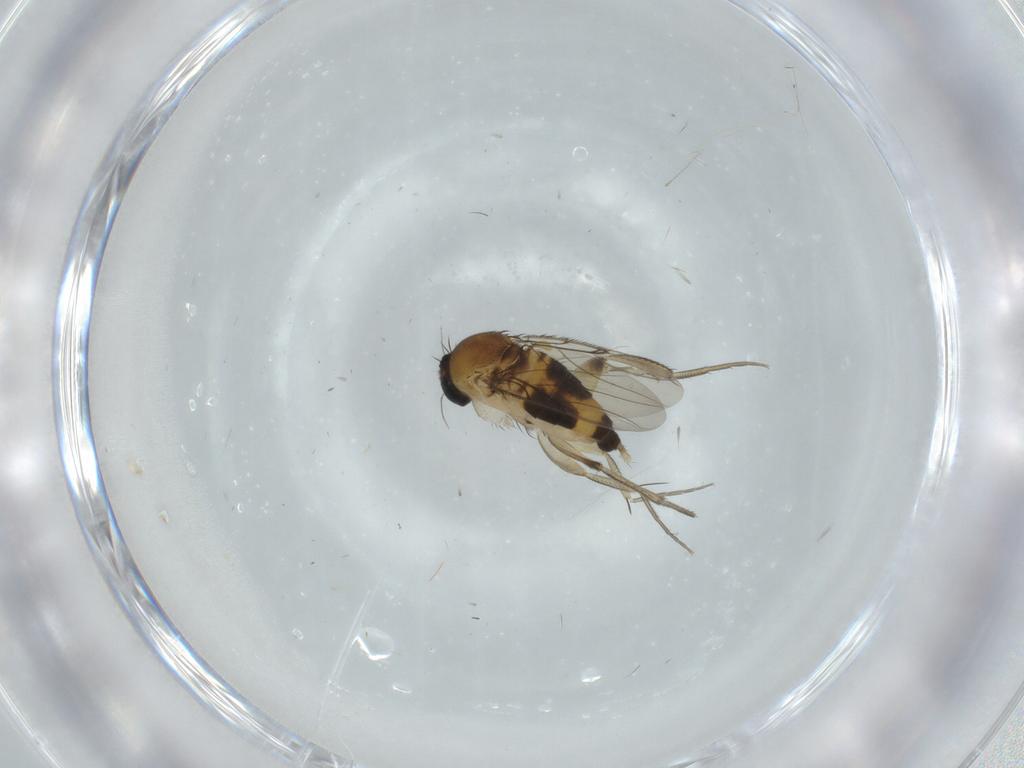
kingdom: Animalia
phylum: Arthropoda
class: Insecta
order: Diptera
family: Phoridae
